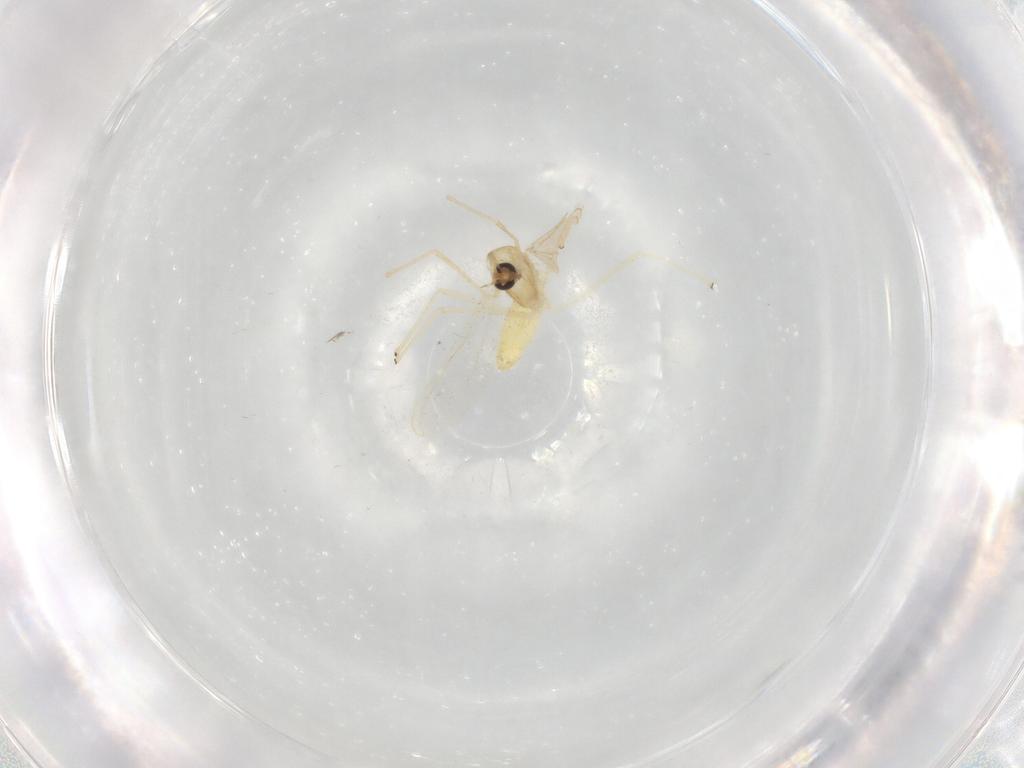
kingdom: Animalia
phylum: Arthropoda
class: Insecta
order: Diptera
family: Chironomidae
